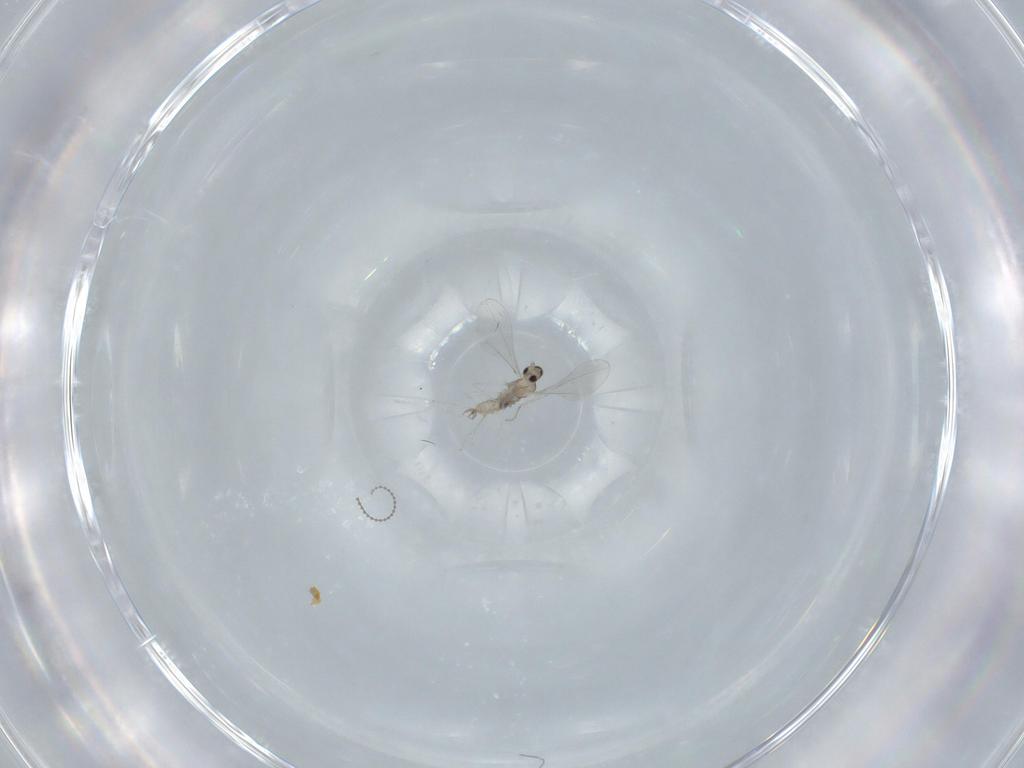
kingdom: Animalia
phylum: Arthropoda
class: Insecta
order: Diptera
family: Cecidomyiidae
